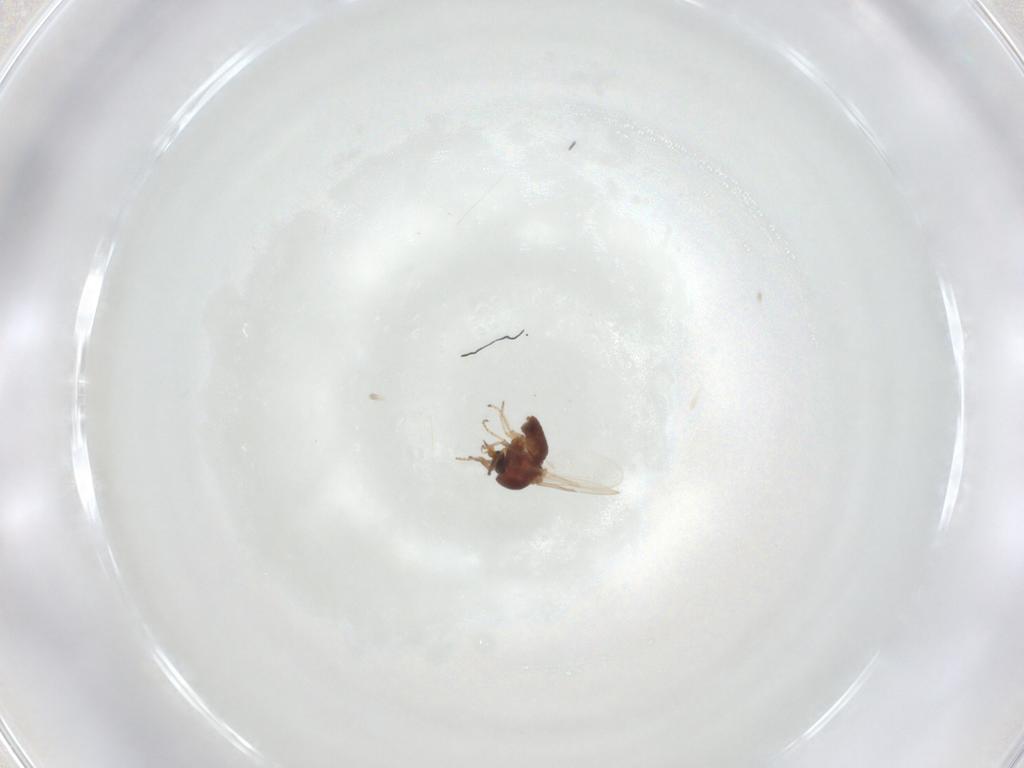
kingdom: Animalia
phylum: Arthropoda
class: Insecta
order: Diptera
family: Ceratopogonidae
